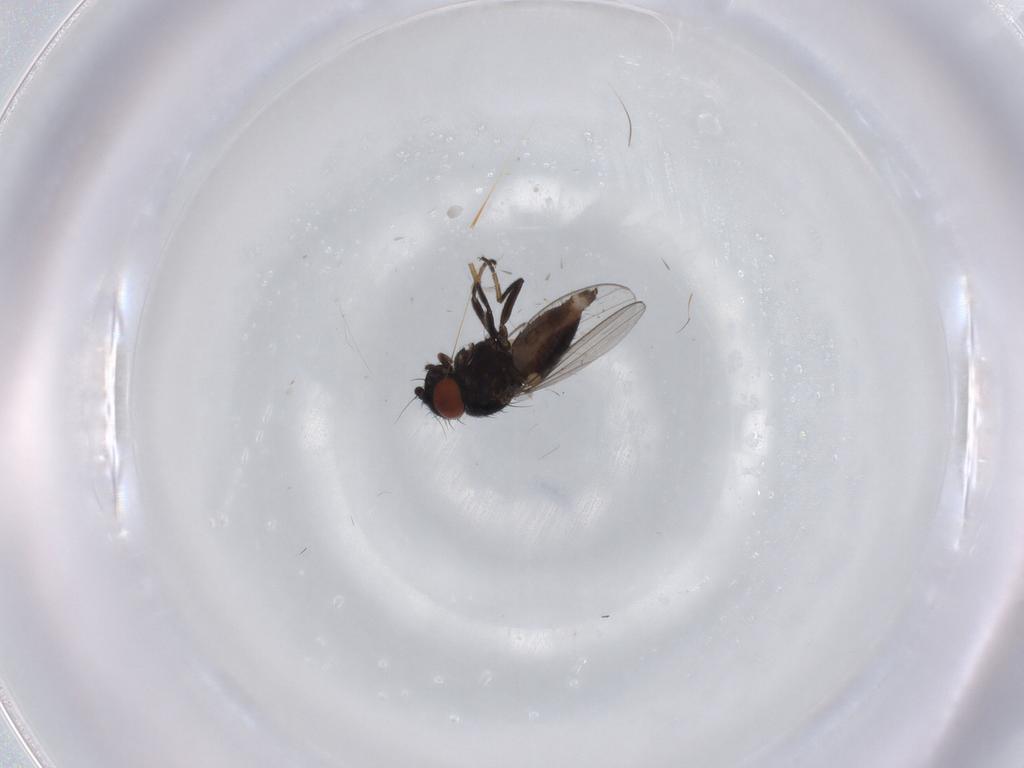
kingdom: Animalia
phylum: Arthropoda
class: Insecta
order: Diptera
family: Milichiidae
